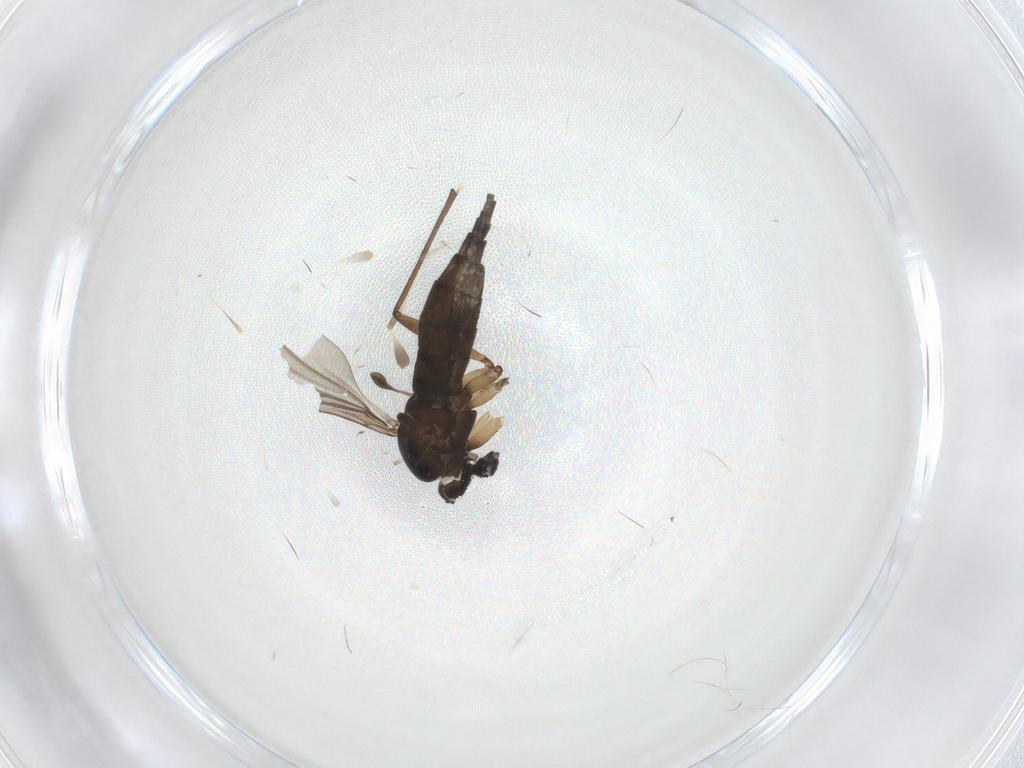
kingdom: Animalia
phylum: Arthropoda
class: Insecta
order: Diptera
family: Sciaridae
